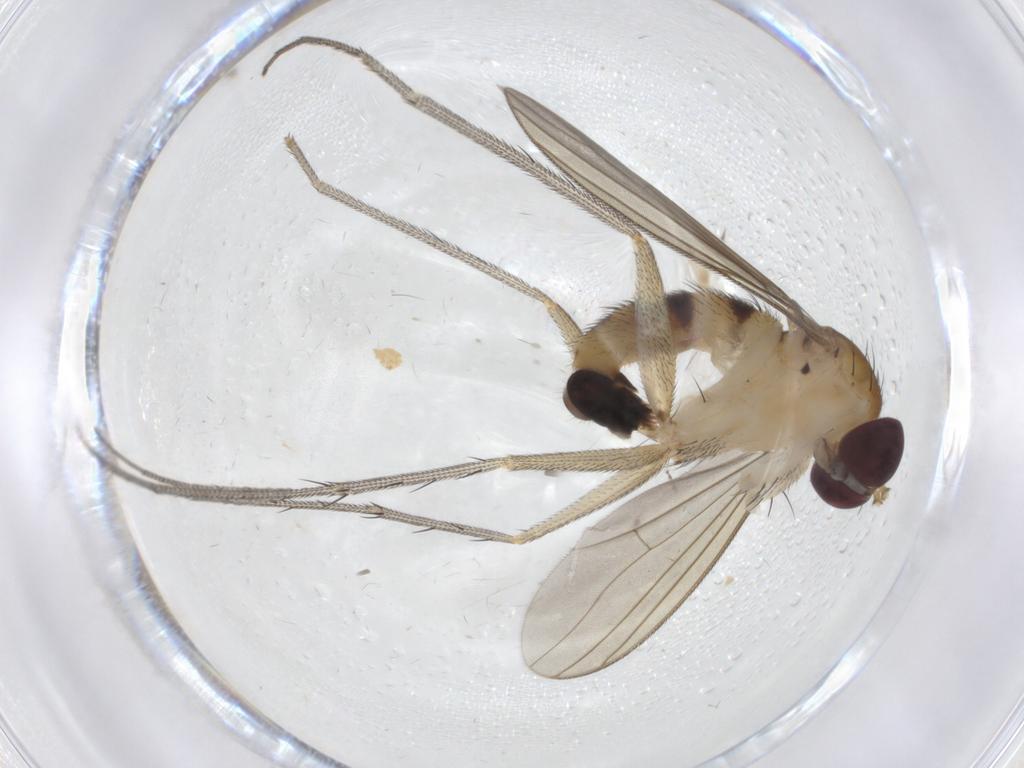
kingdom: Animalia
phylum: Arthropoda
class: Insecta
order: Diptera
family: Cecidomyiidae
